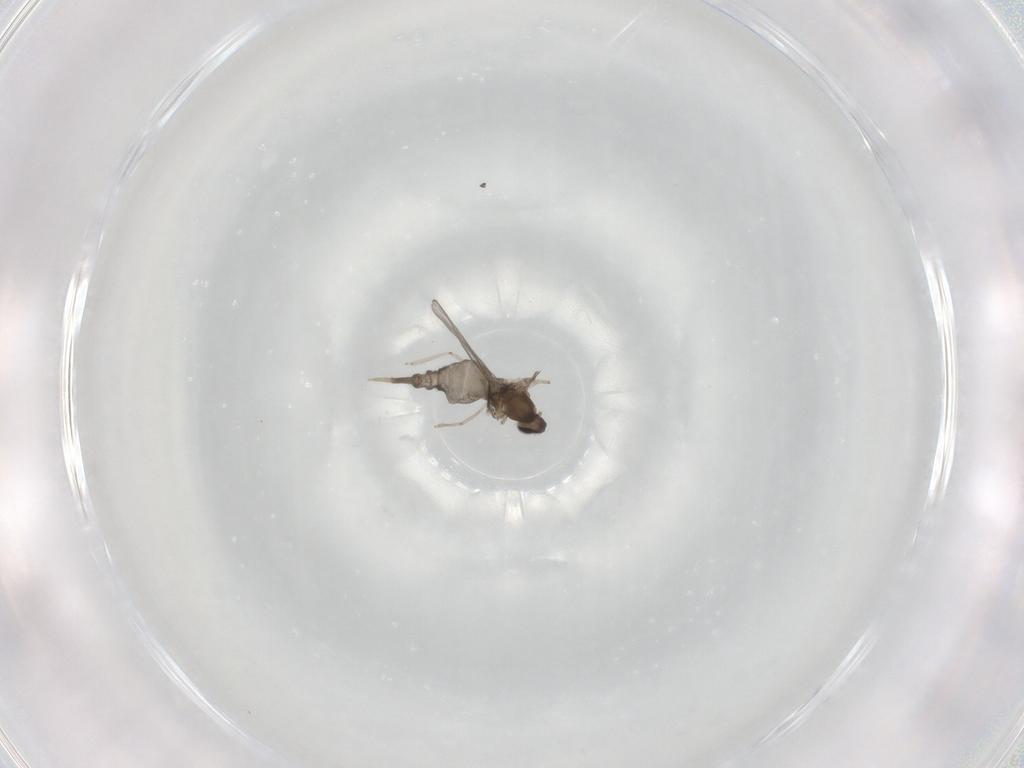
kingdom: Animalia
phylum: Arthropoda
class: Insecta
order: Diptera
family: Cecidomyiidae
